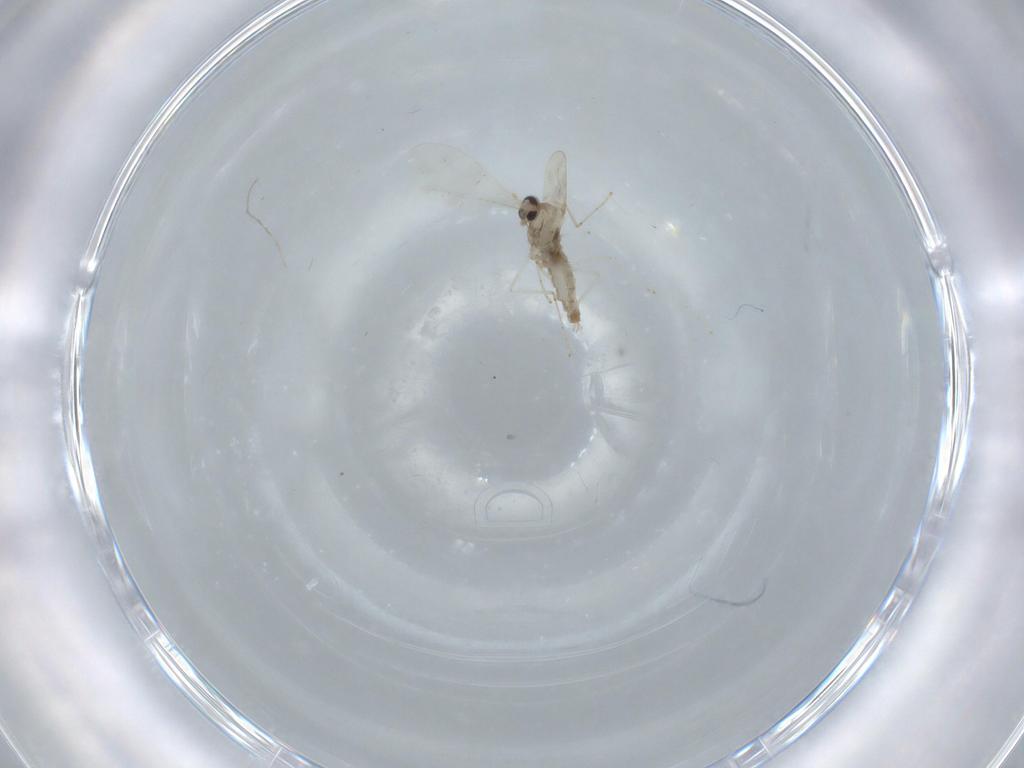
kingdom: Animalia
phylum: Arthropoda
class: Insecta
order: Diptera
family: Cecidomyiidae
